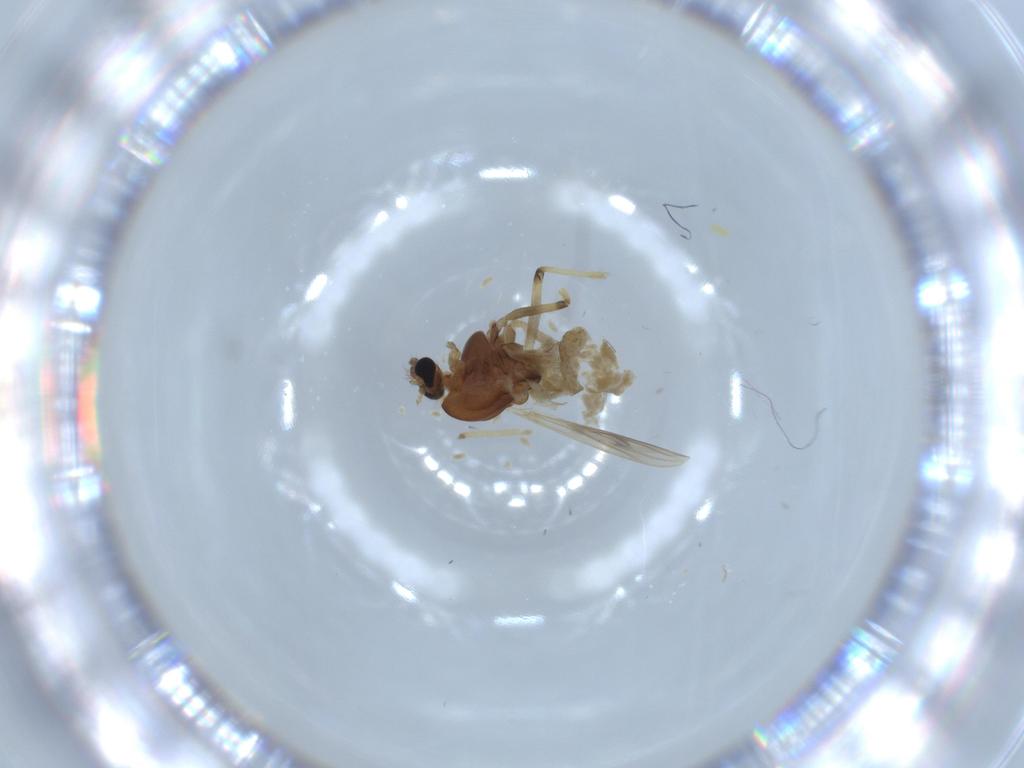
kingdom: Animalia
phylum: Arthropoda
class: Insecta
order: Diptera
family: Chironomidae
